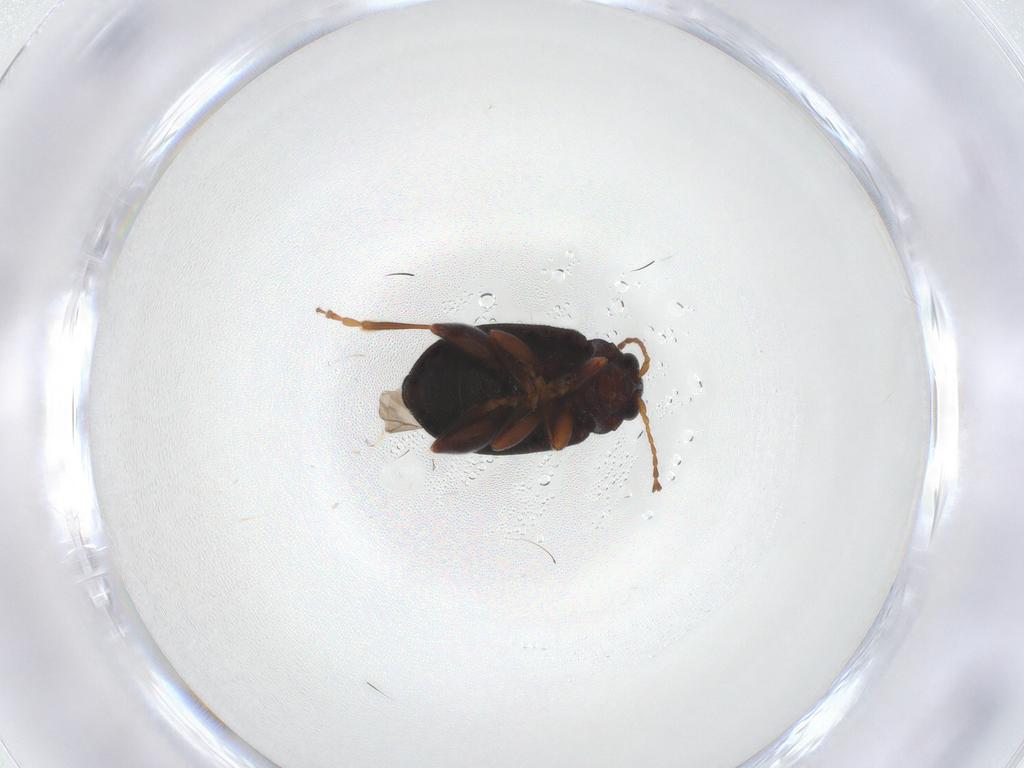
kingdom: Animalia
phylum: Arthropoda
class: Insecta
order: Coleoptera
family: Chrysomelidae
